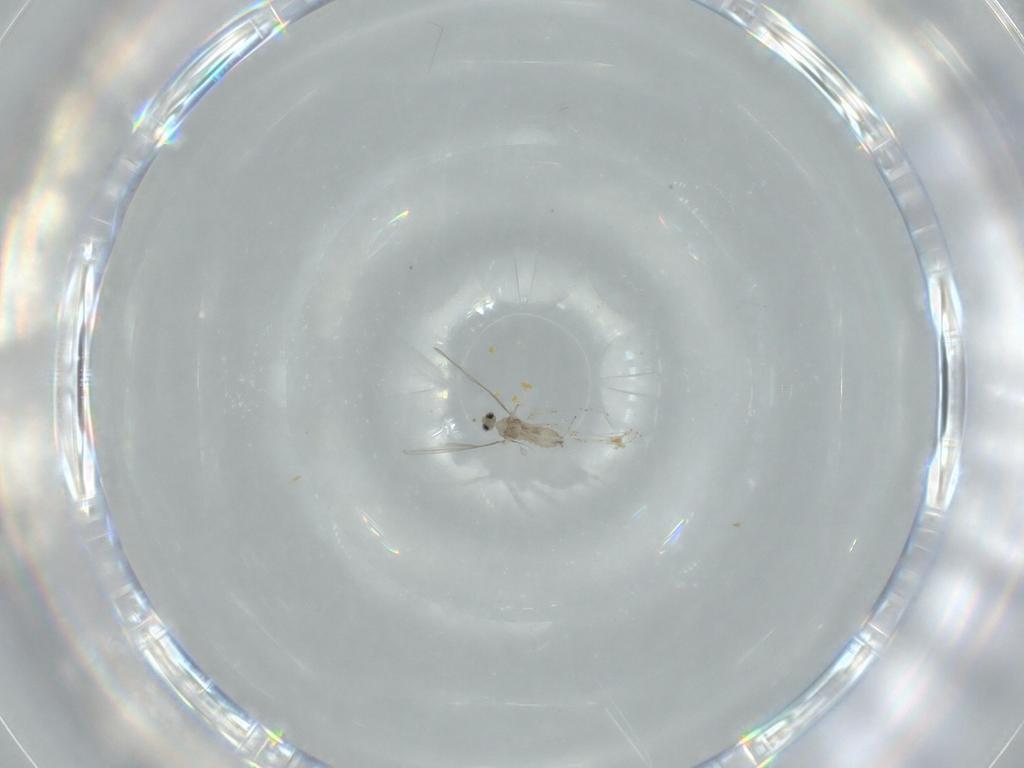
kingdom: Animalia
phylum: Arthropoda
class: Insecta
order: Diptera
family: Cecidomyiidae
